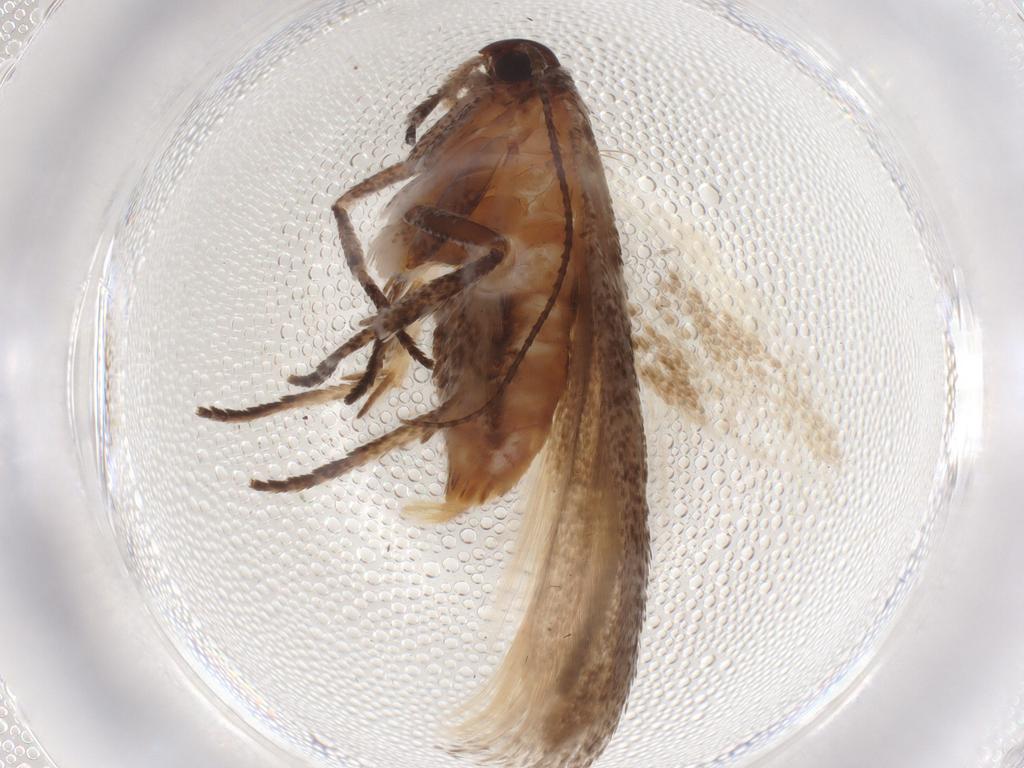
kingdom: Animalia
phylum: Arthropoda
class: Insecta
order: Lepidoptera
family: Cosmopterigidae
